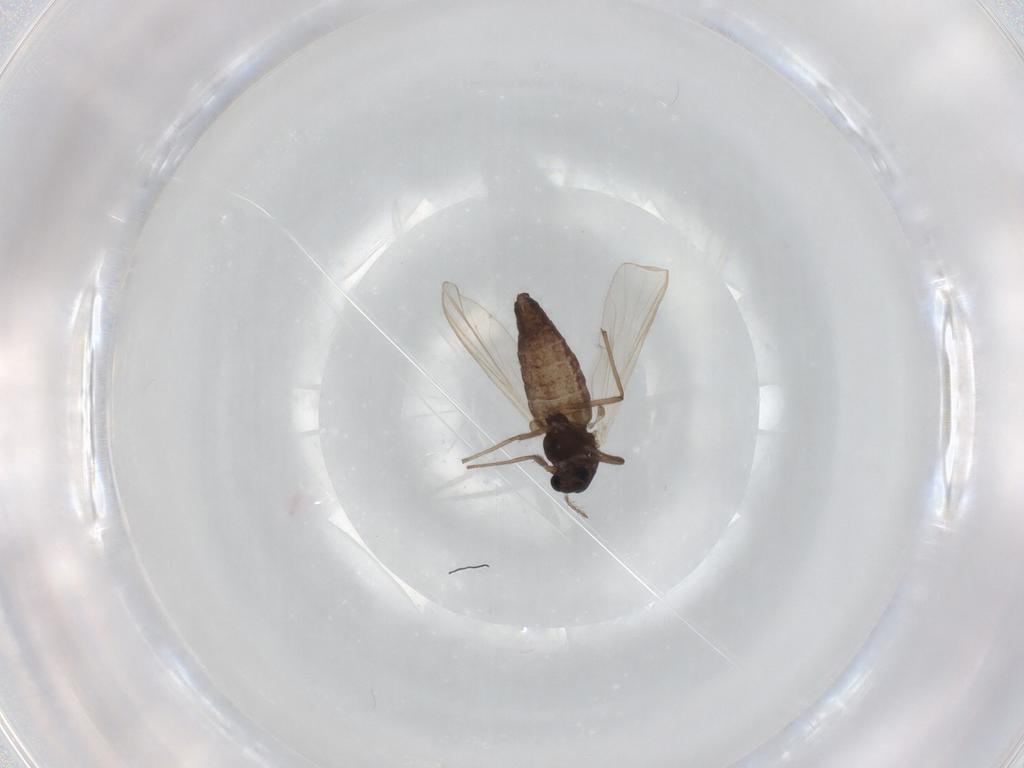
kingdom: Animalia
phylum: Arthropoda
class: Insecta
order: Diptera
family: Chironomidae
